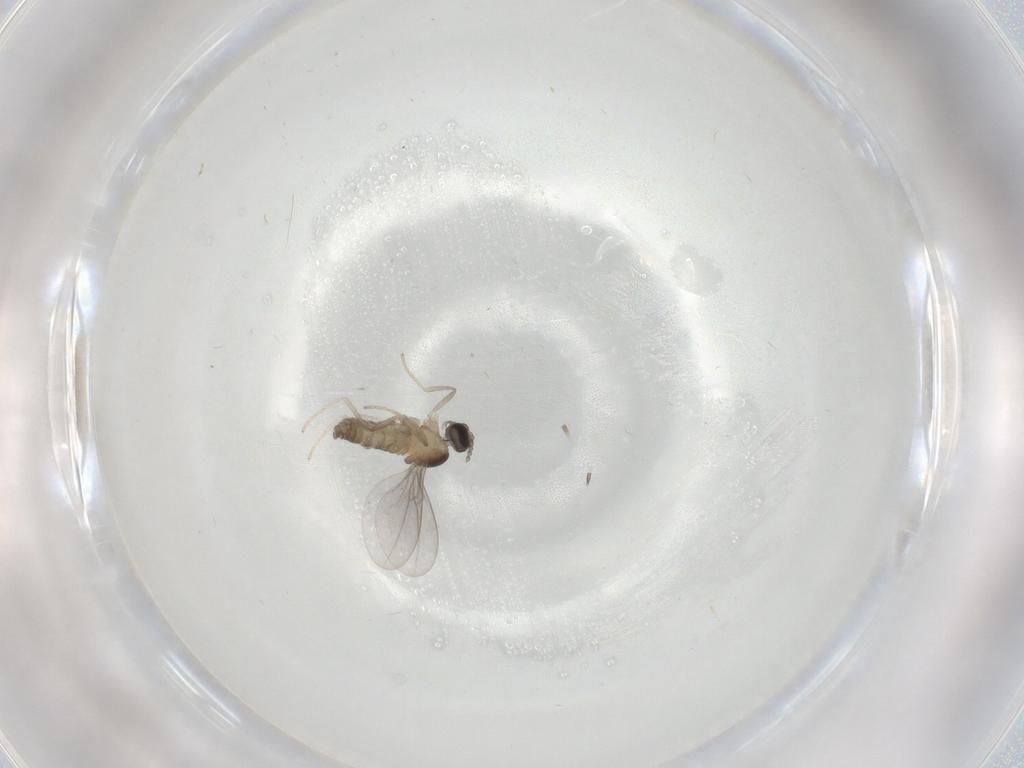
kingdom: Animalia
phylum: Arthropoda
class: Insecta
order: Diptera
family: Cecidomyiidae
